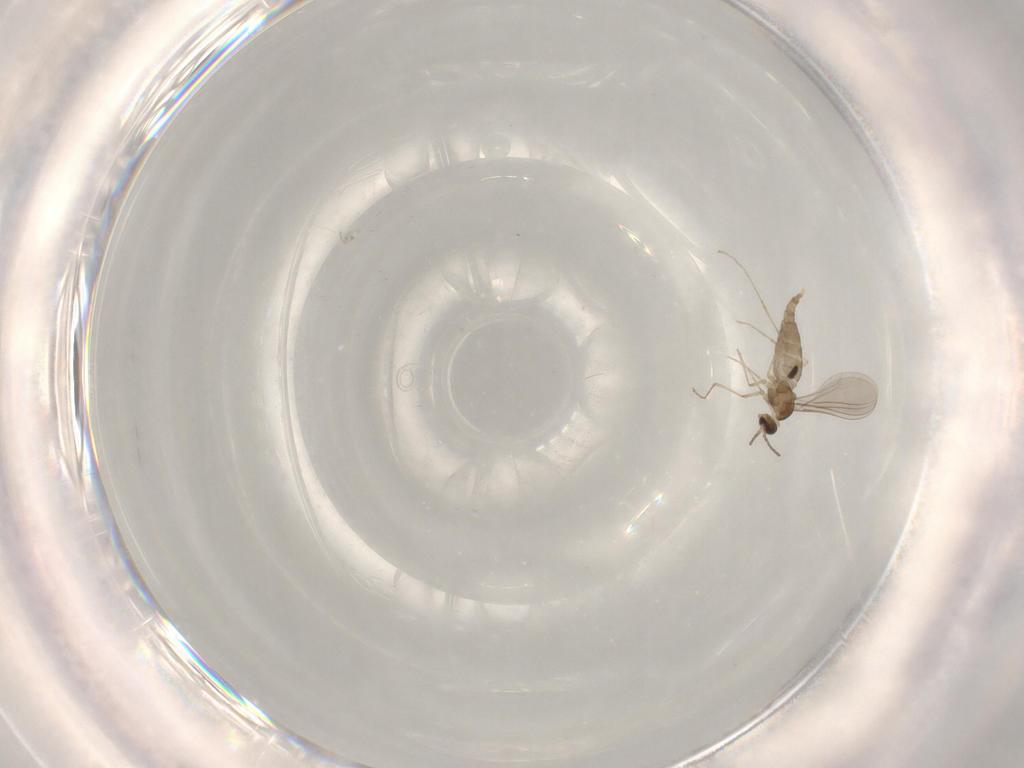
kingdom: Animalia
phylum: Arthropoda
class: Insecta
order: Diptera
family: Cecidomyiidae
